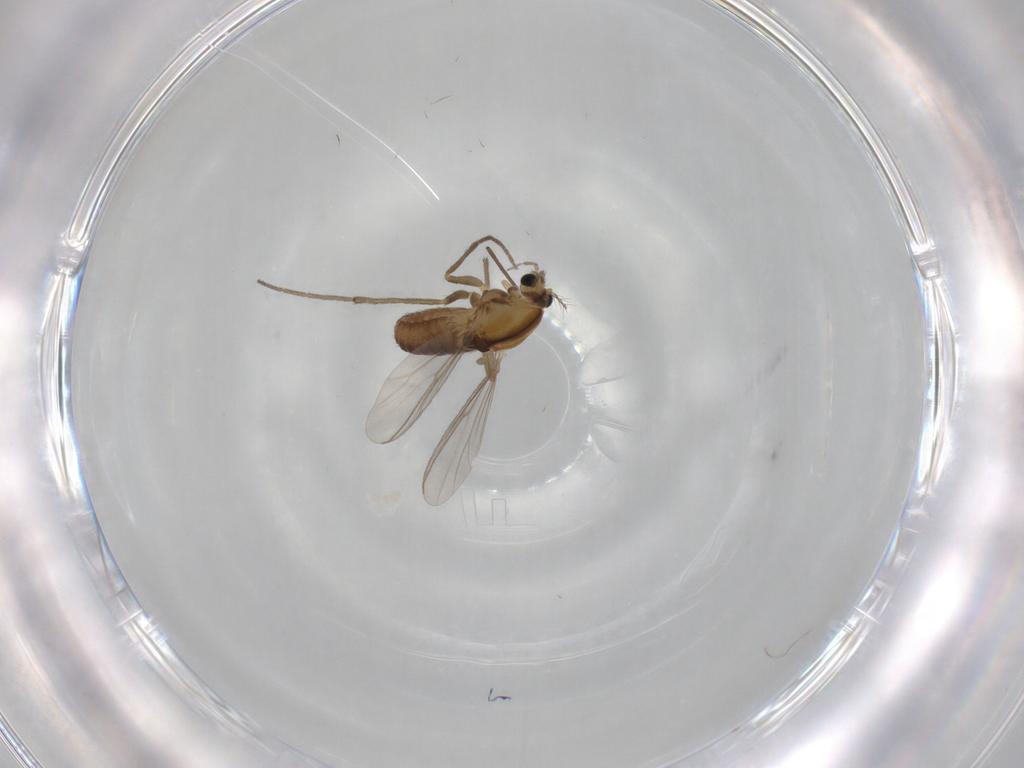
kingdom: Animalia
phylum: Arthropoda
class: Insecta
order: Diptera
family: Chironomidae
